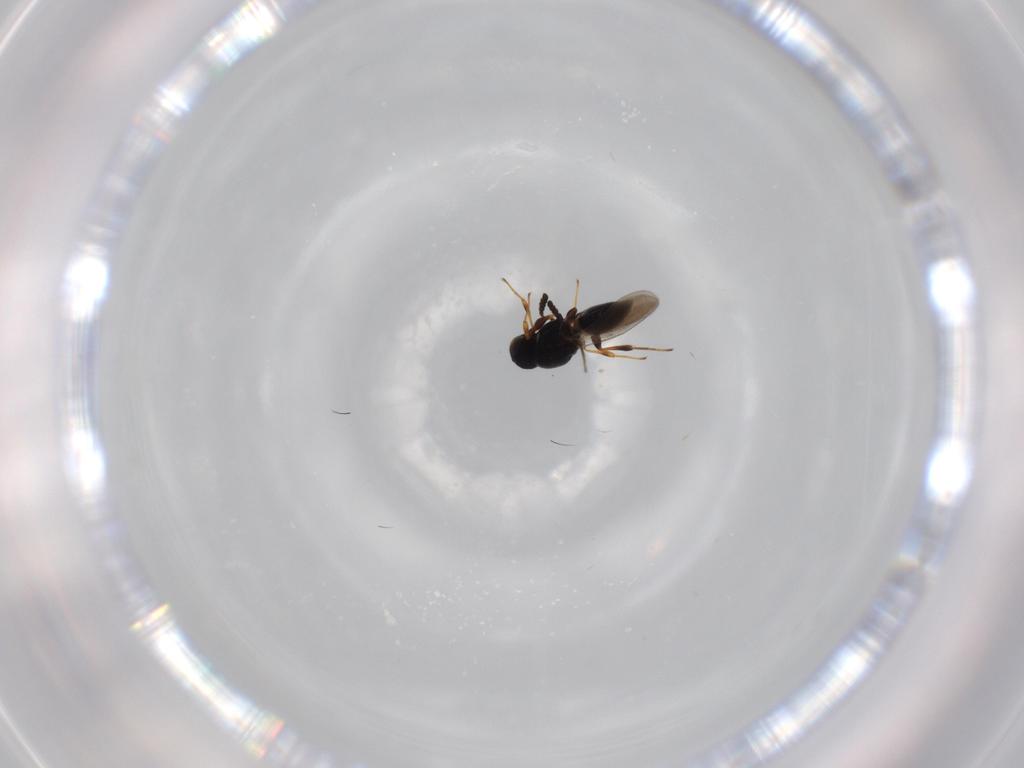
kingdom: Animalia
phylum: Arthropoda
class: Insecta
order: Hymenoptera
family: Platygastridae
